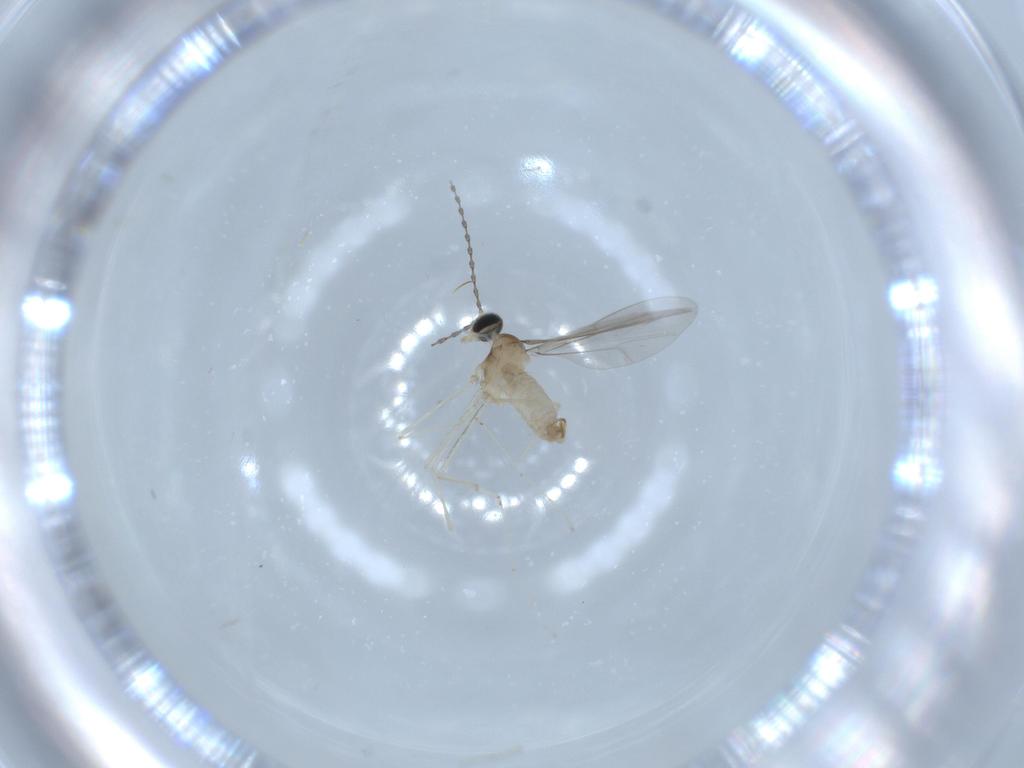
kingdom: Animalia
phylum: Arthropoda
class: Insecta
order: Diptera
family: Cecidomyiidae
